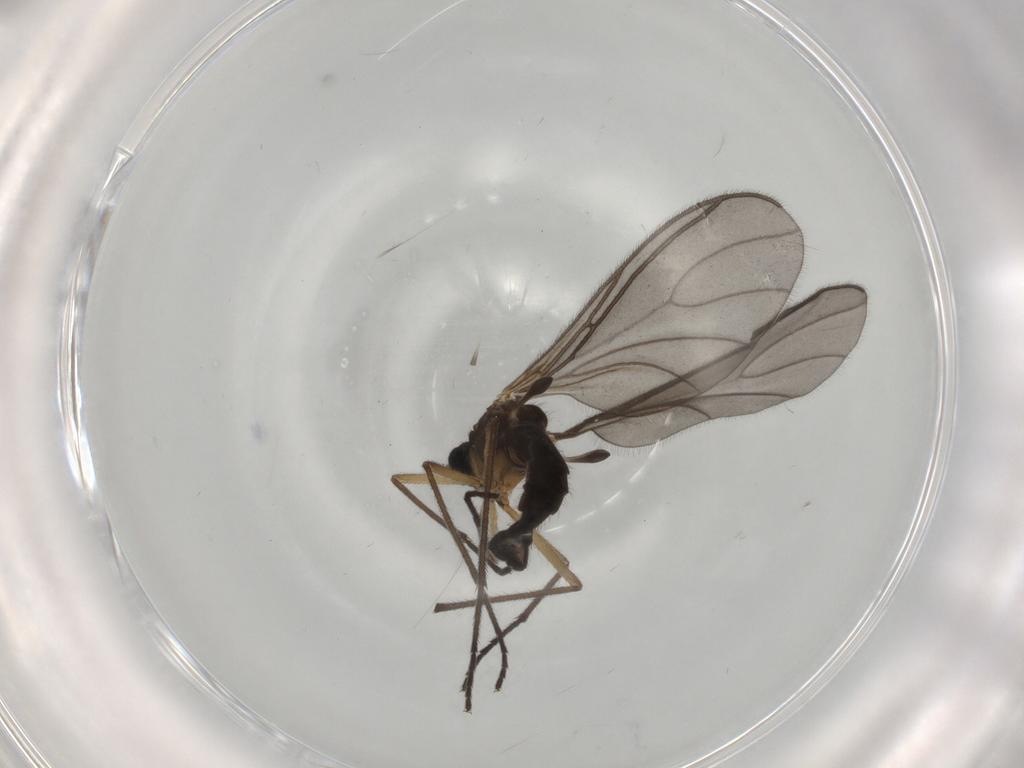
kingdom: Animalia
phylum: Arthropoda
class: Insecta
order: Diptera
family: Sciaridae
